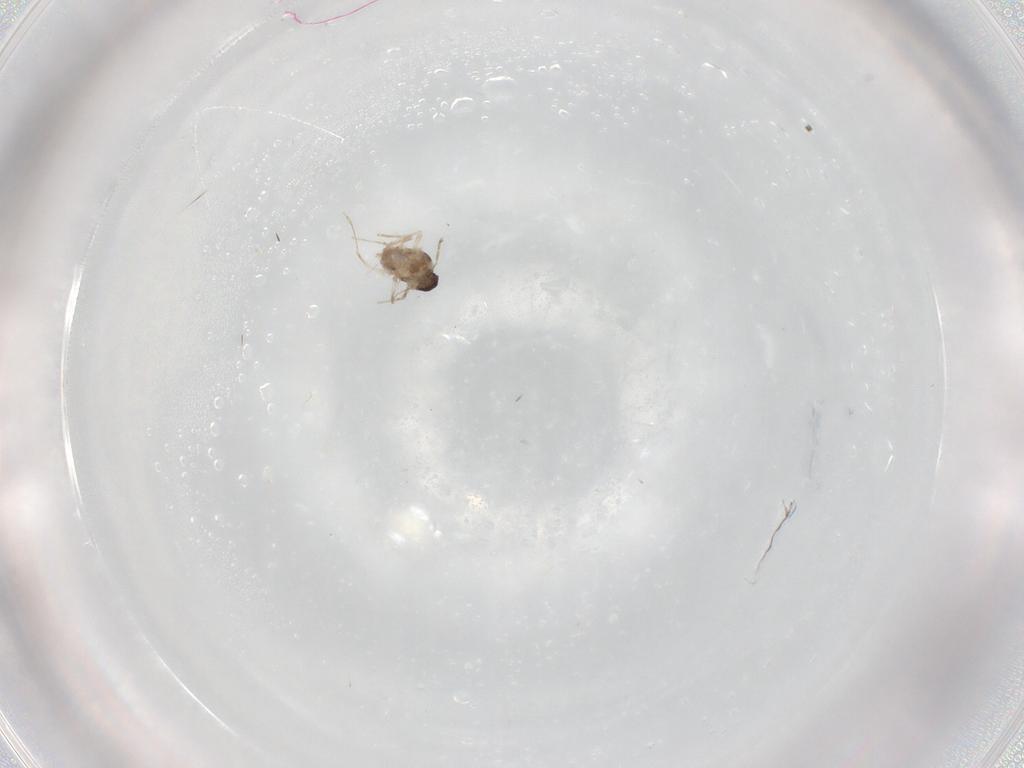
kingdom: Animalia
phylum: Arthropoda
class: Insecta
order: Diptera
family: Cecidomyiidae
